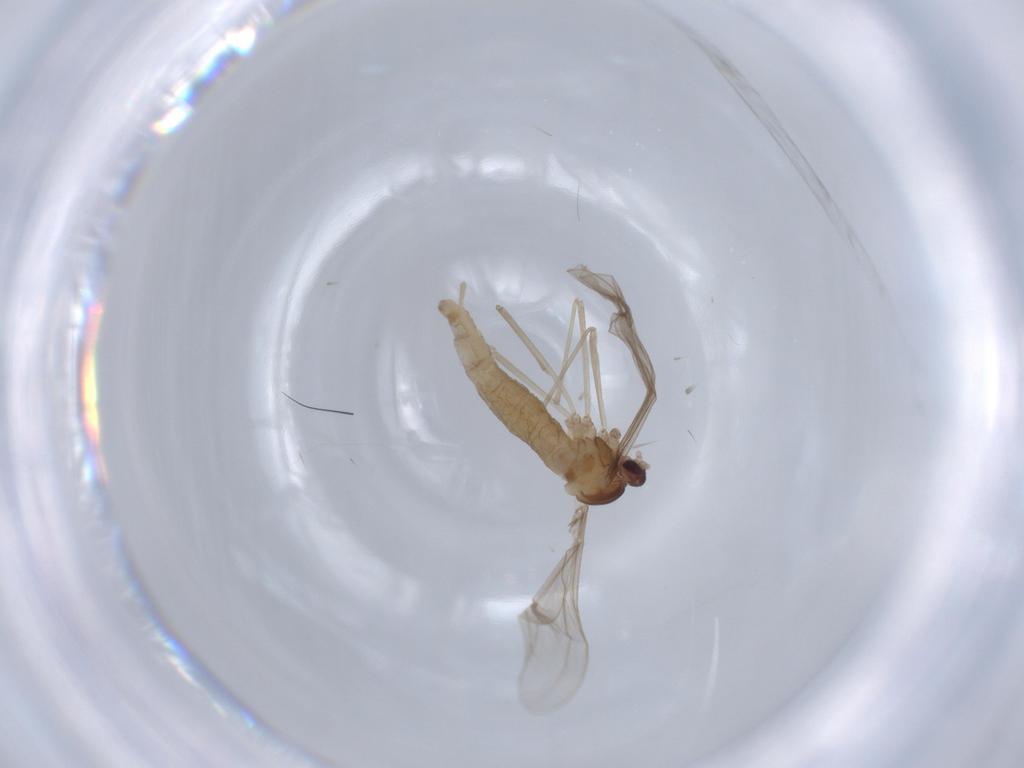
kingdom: Animalia
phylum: Arthropoda
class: Insecta
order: Diptera
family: Cecidomyiidae
